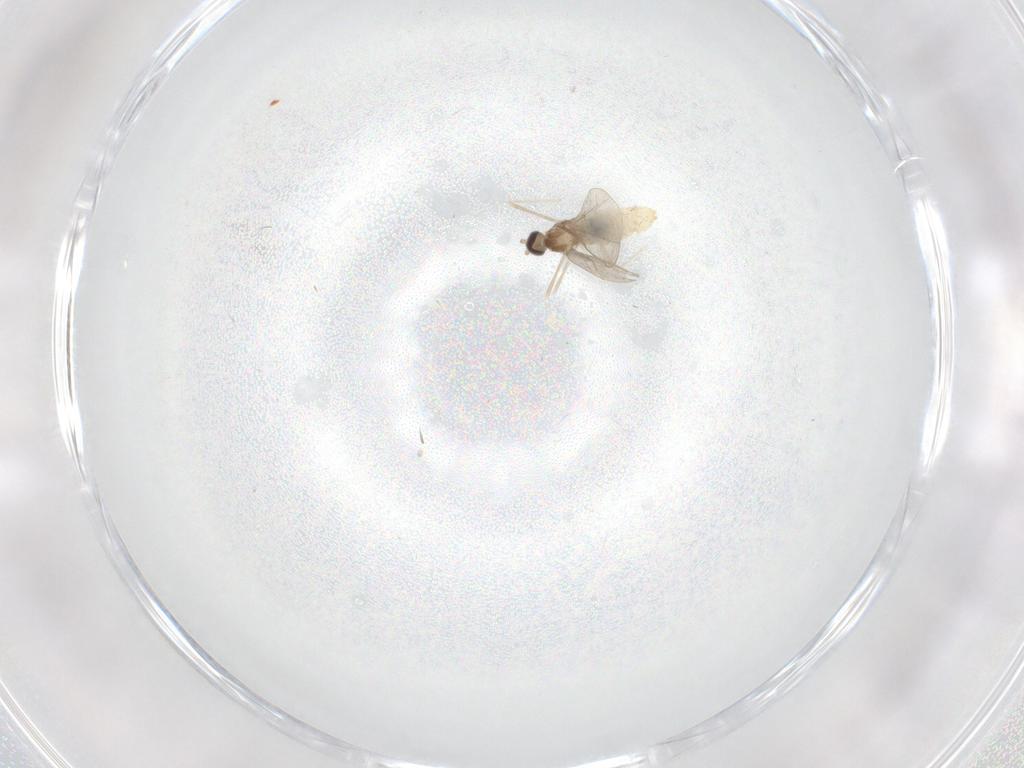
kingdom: Animalia
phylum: Arthropoda
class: Insecta
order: Diptera
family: Cecidomyiidae
